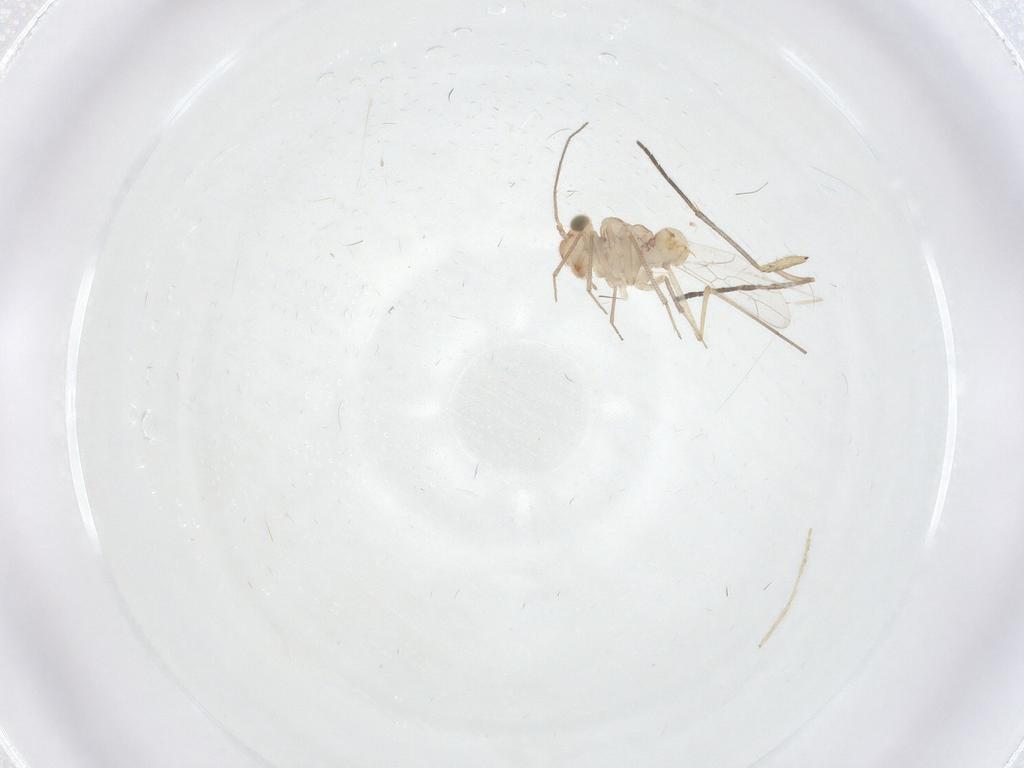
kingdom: Animalia
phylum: Arthropoda
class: Insecta
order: Psocodea
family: Lachesillidae
